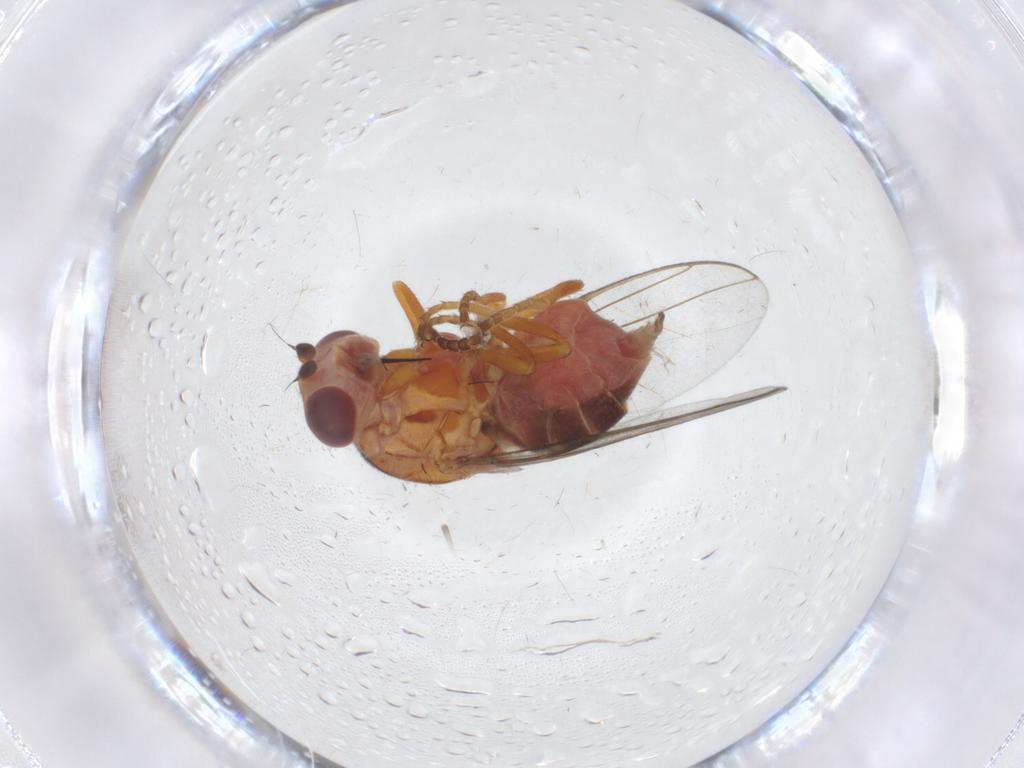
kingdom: Animalia
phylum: Arthropoda
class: Insecta
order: Diptera
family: Chloropidae
